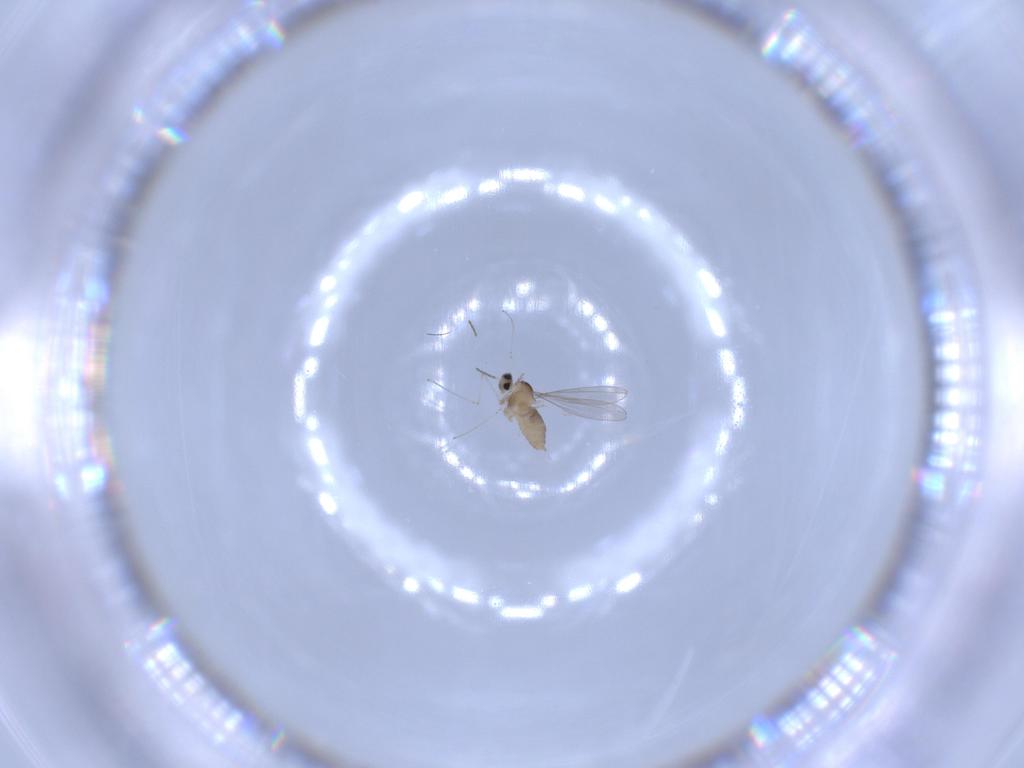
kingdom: Animalia
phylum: Arthropoda
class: Insecta
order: Diptera
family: Cecidomyiidae
